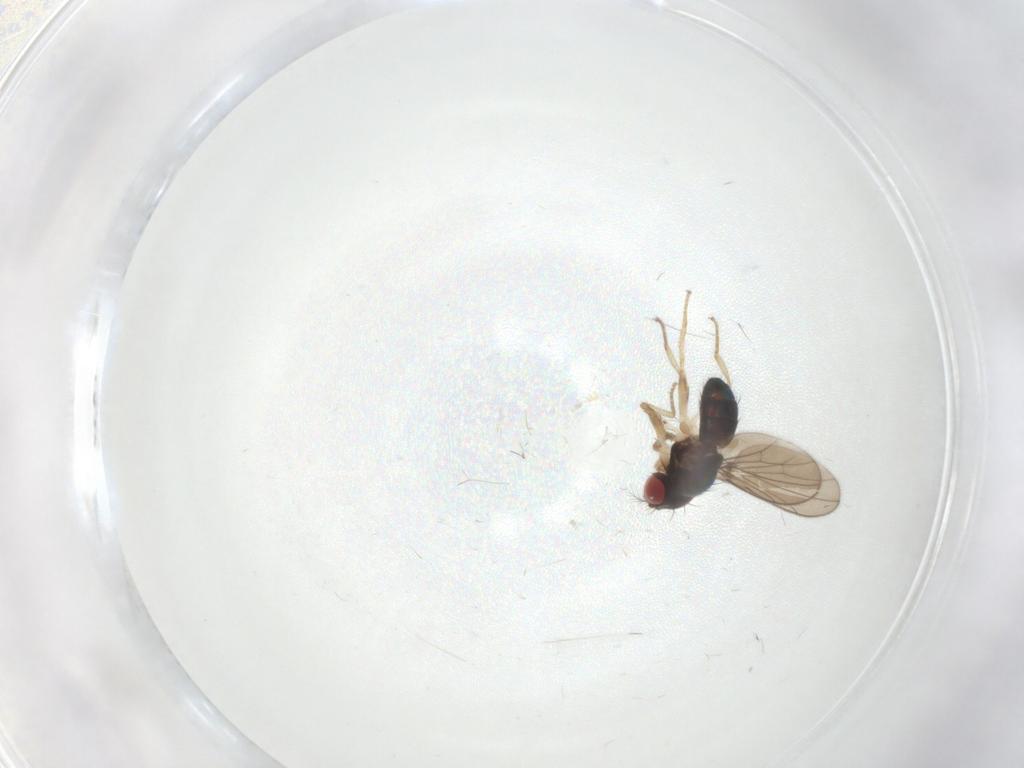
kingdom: Animalia
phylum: Arthropoda
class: Insecta
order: Diptera
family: Drosophilidae
